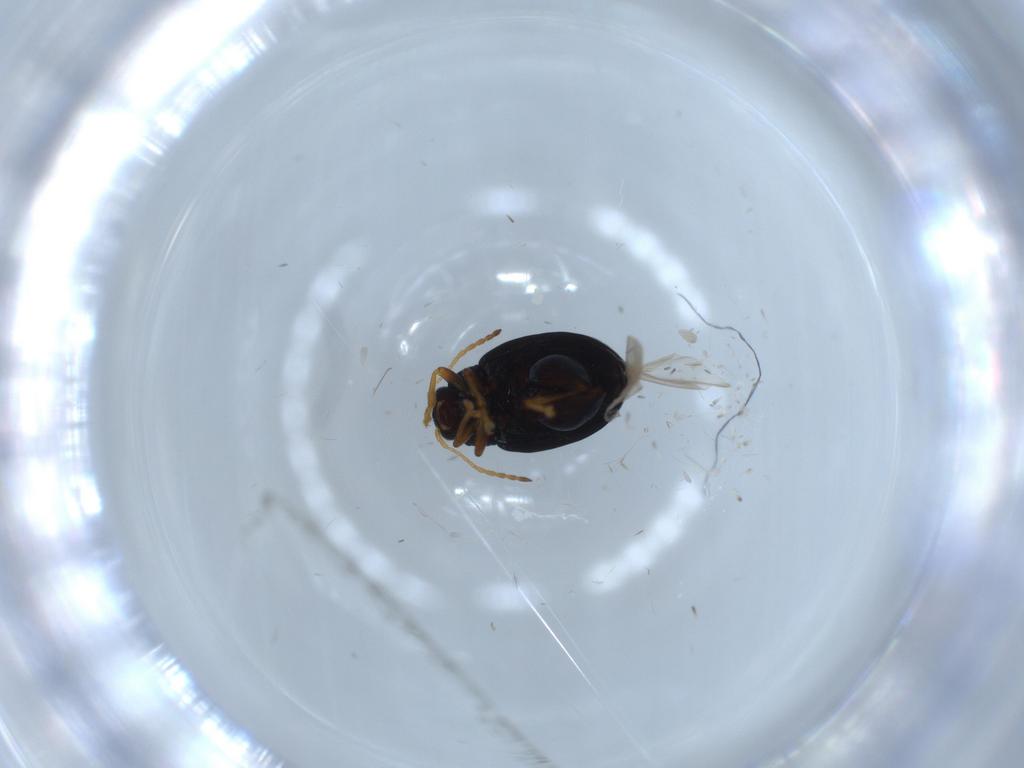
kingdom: Animalia
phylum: Arthropoda
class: Insecta
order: Coleoptera
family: Chrysomelidae
